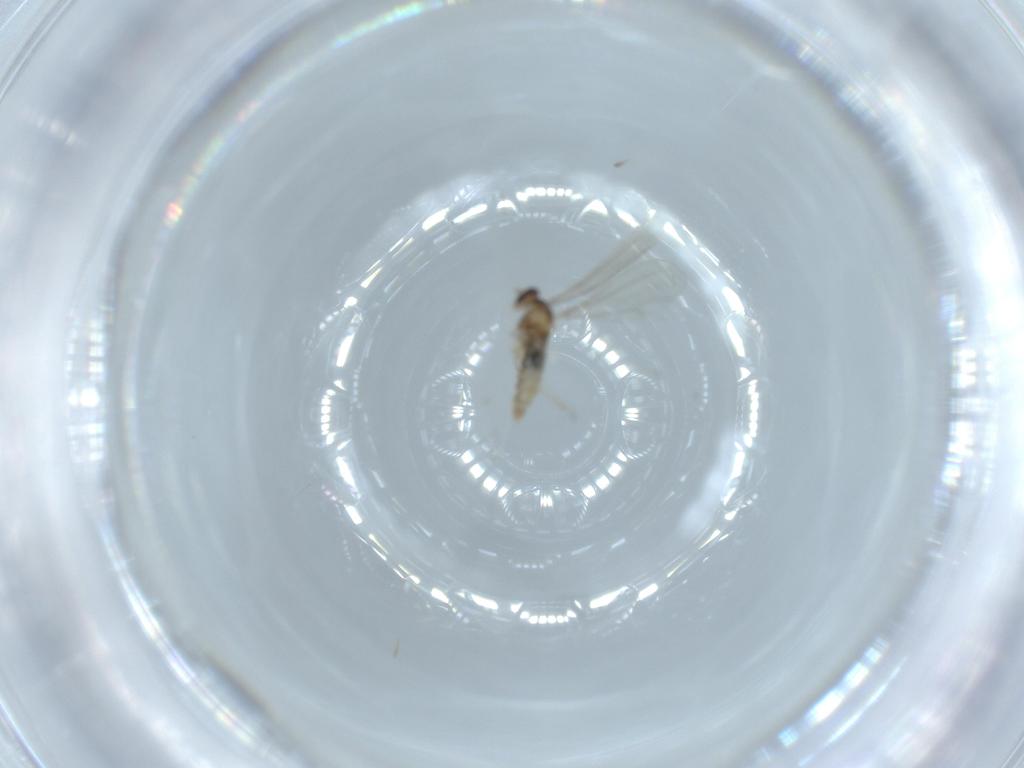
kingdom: Animalia
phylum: Arthropoda
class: Insecta
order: Diptera
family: Cecidomyiidae
